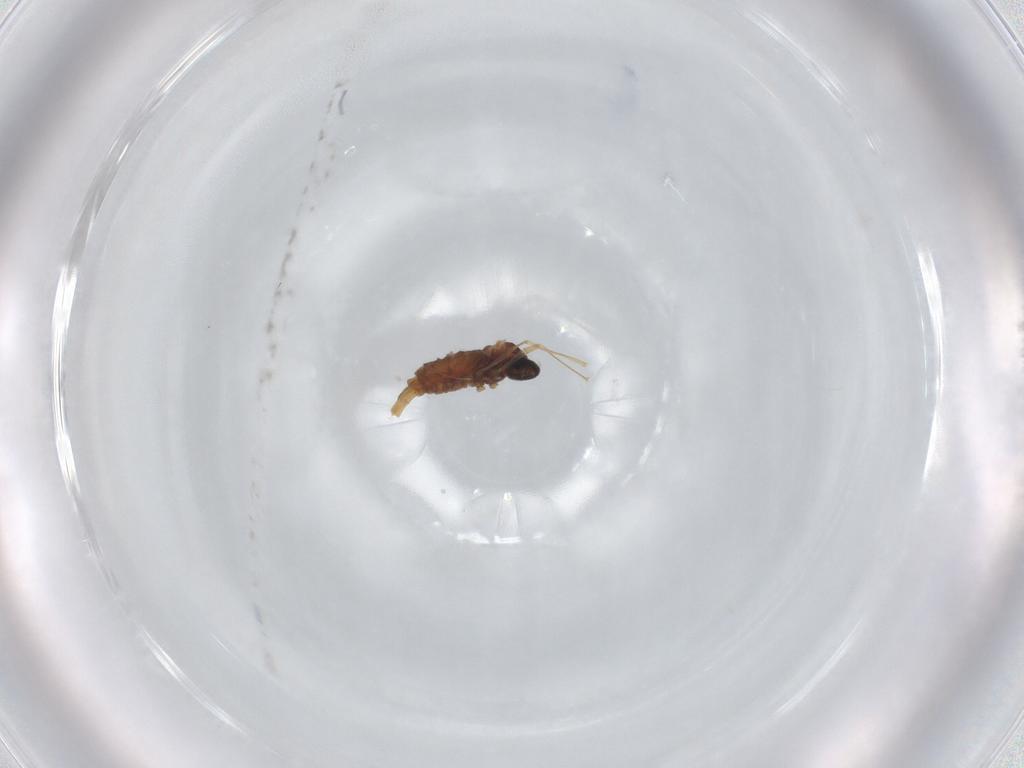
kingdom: Animalia
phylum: Arthropoda
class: Insecta
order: Diptera
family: Cecidomyiidae
